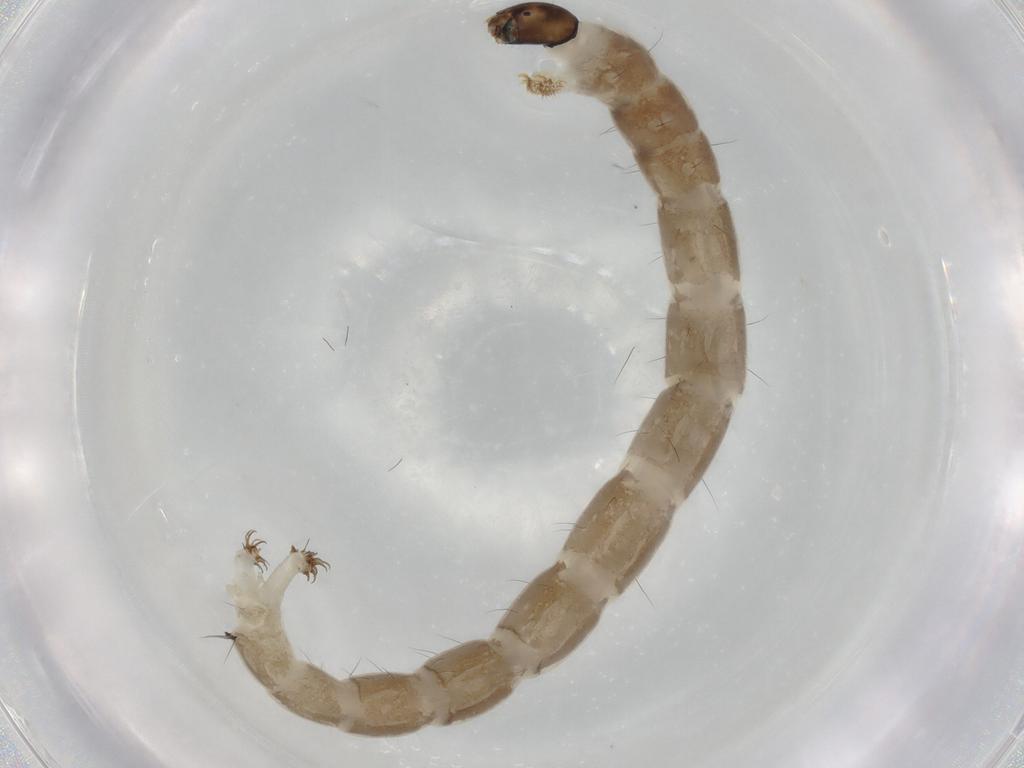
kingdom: Animalia
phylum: Arthropoda
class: Insecta
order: Diptera
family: Chironomidae
